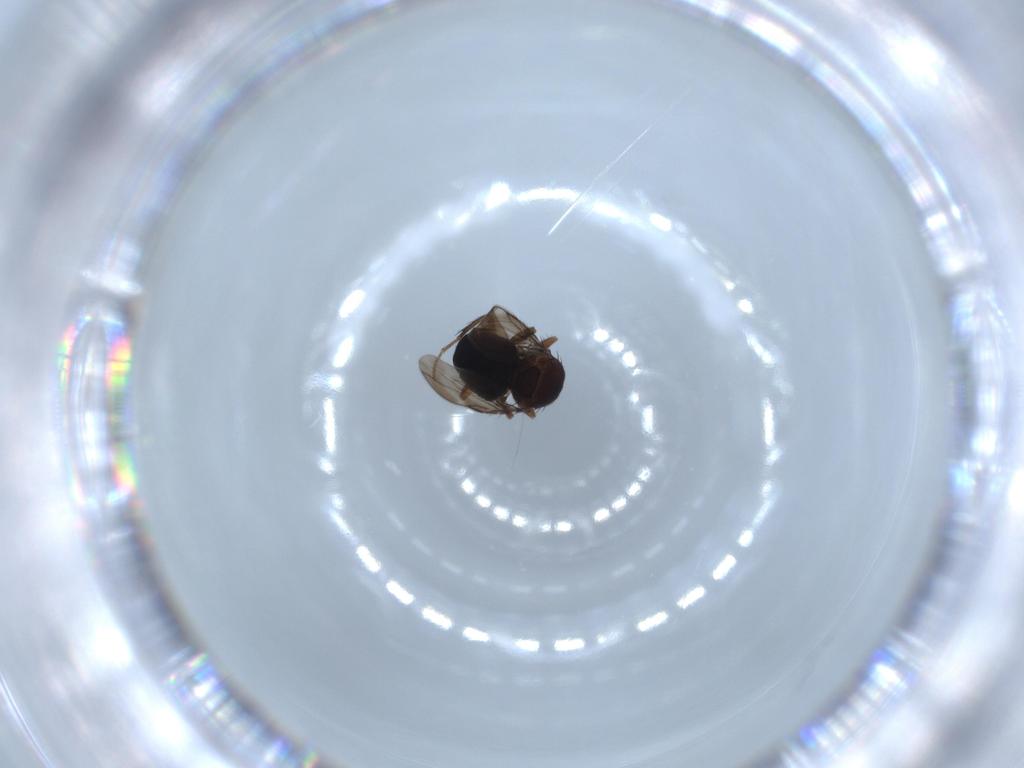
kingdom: Animalia
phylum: Arthropoda
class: Insecta
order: Diptera
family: Sphaeroceridae
